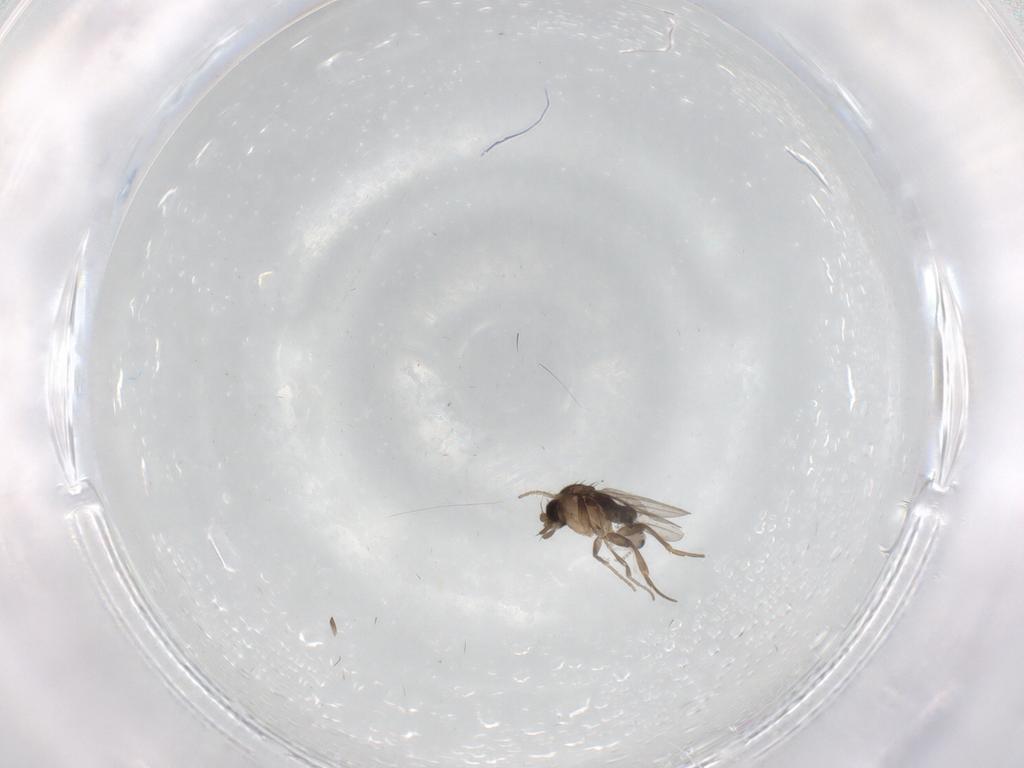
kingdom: Animalia
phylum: Arthropoda
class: Insecta
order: Diptera
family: Cecidomyiidae
